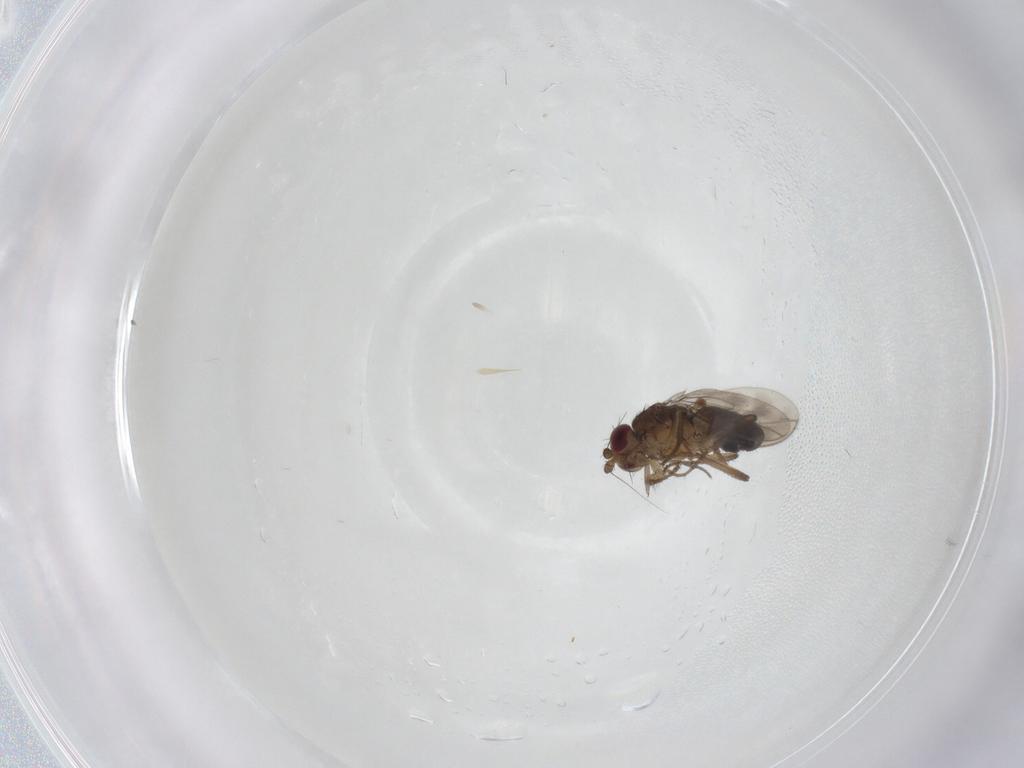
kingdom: Animalia
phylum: Arthropoda
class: Insecta
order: Diptera
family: Sphaeroceridae
